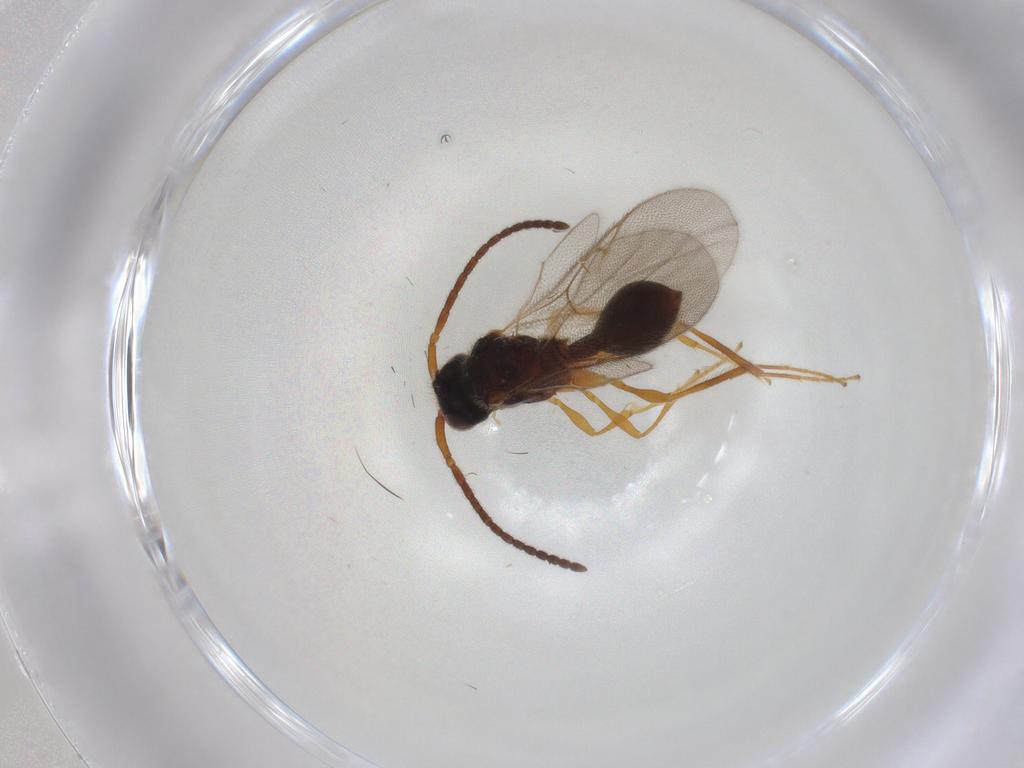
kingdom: Animalia
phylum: Arthropoda
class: Insecta
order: Hymenoptera
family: Diapriidae
